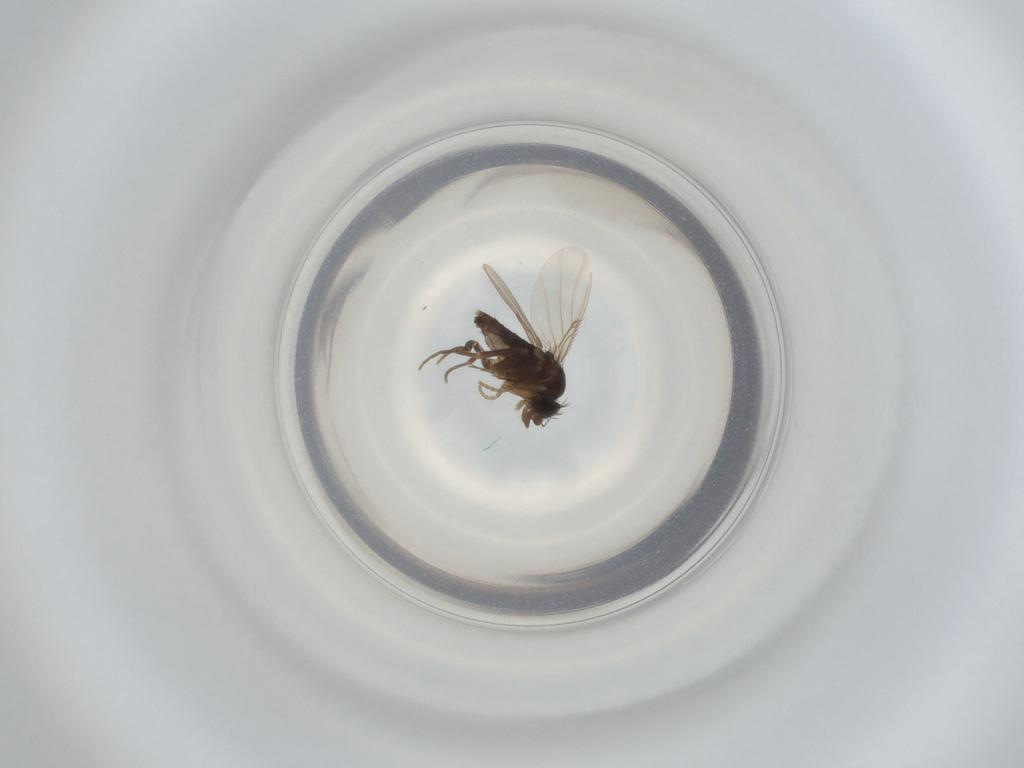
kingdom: Animalia
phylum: Arthropoda
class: Insecta
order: Diptera
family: Phoridae
